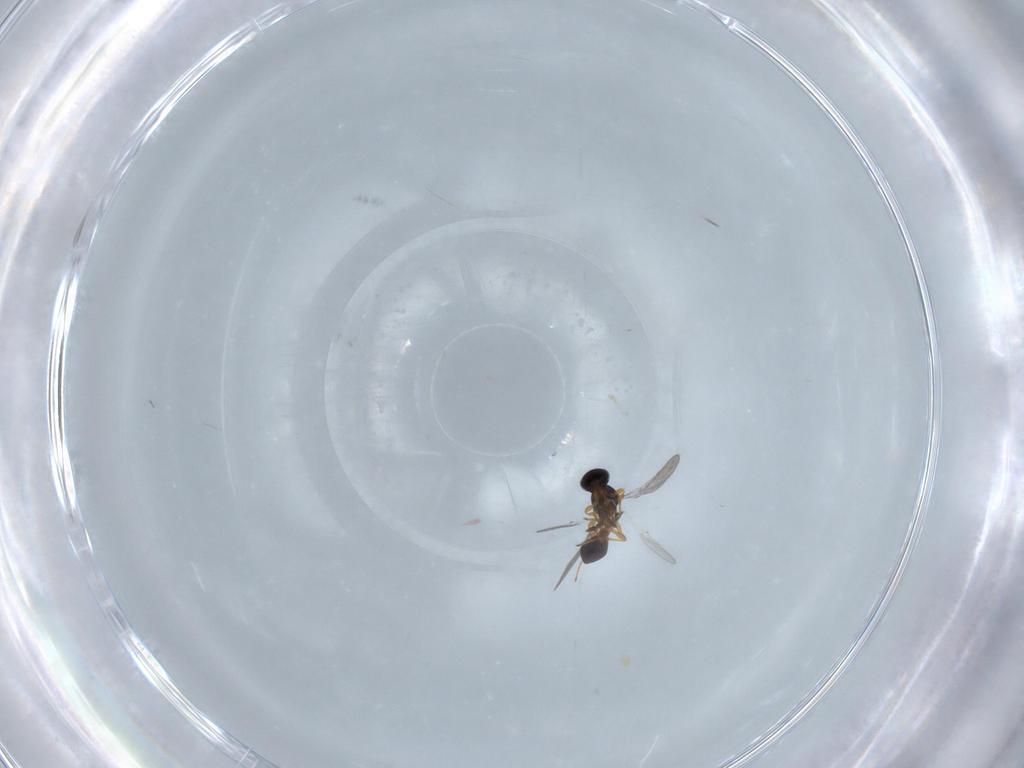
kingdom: Animalia
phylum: Arthropoda
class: Insecta
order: Hymenoptera
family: Platygastridae
